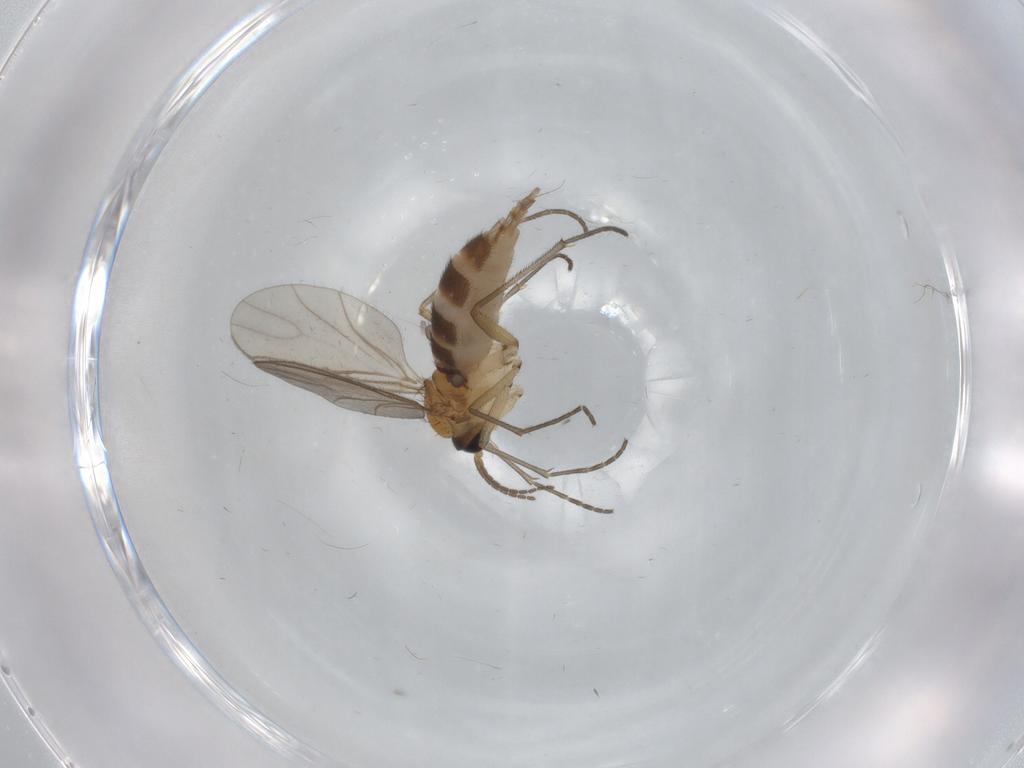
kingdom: Animalia
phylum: Arthropoda
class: Insecta
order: Diptera
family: Sciaridae
